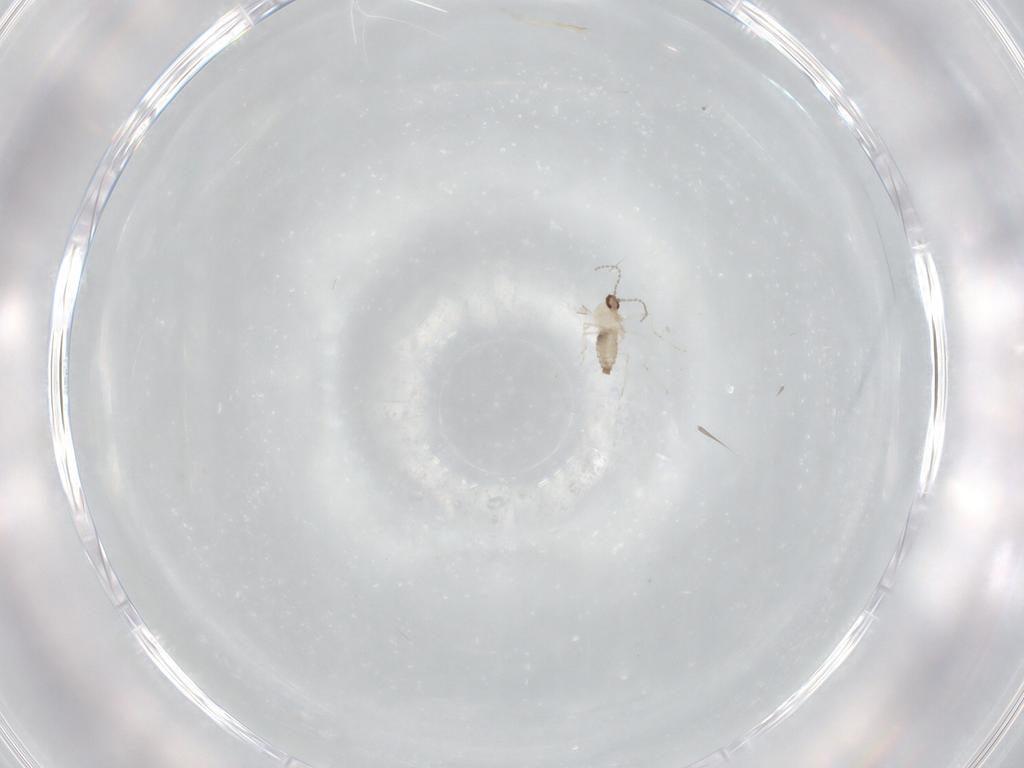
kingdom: Animalia
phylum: Arthropoda
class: Insecta
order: Diptera
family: Cecidomyiidae
